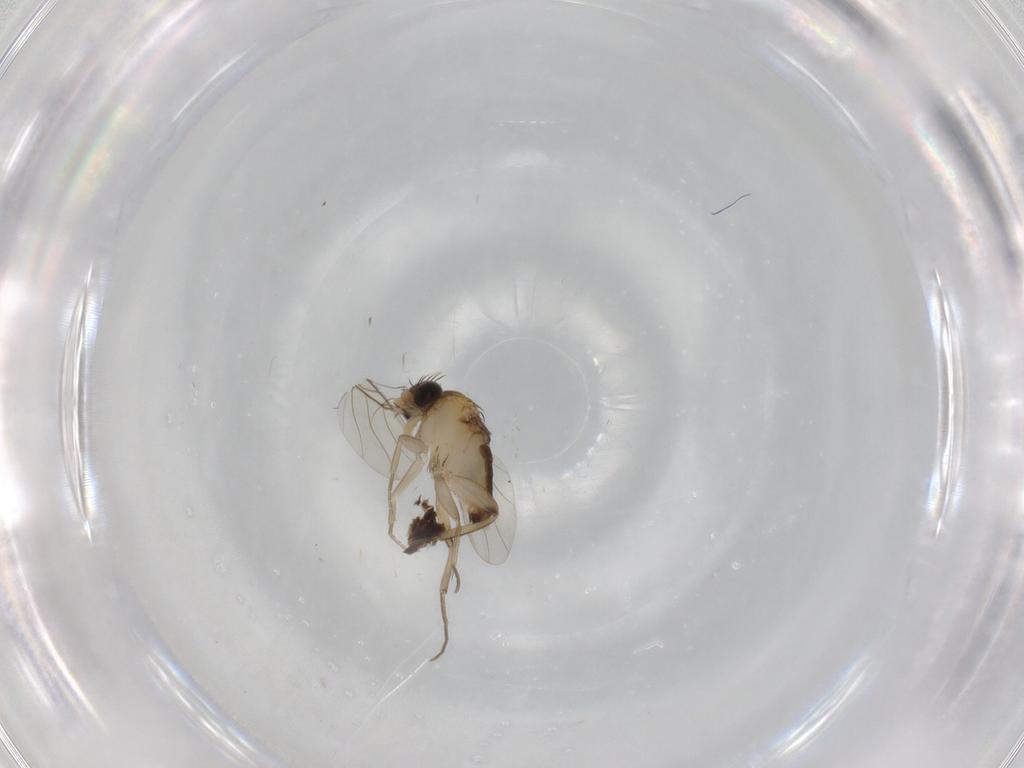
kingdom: Animalia
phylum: Arthropoda
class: Insecta
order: Diptera
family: Phoridae
